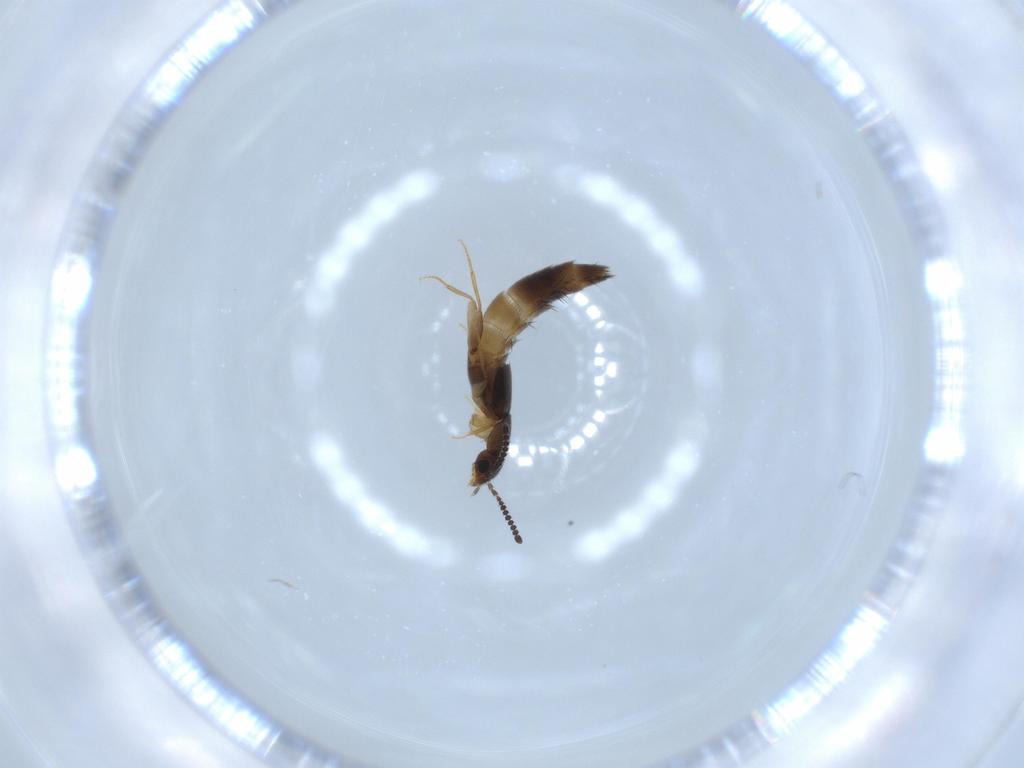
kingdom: Animalia
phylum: Arthropoda
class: Insecta
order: Coleoptera
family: Staphylinidae
